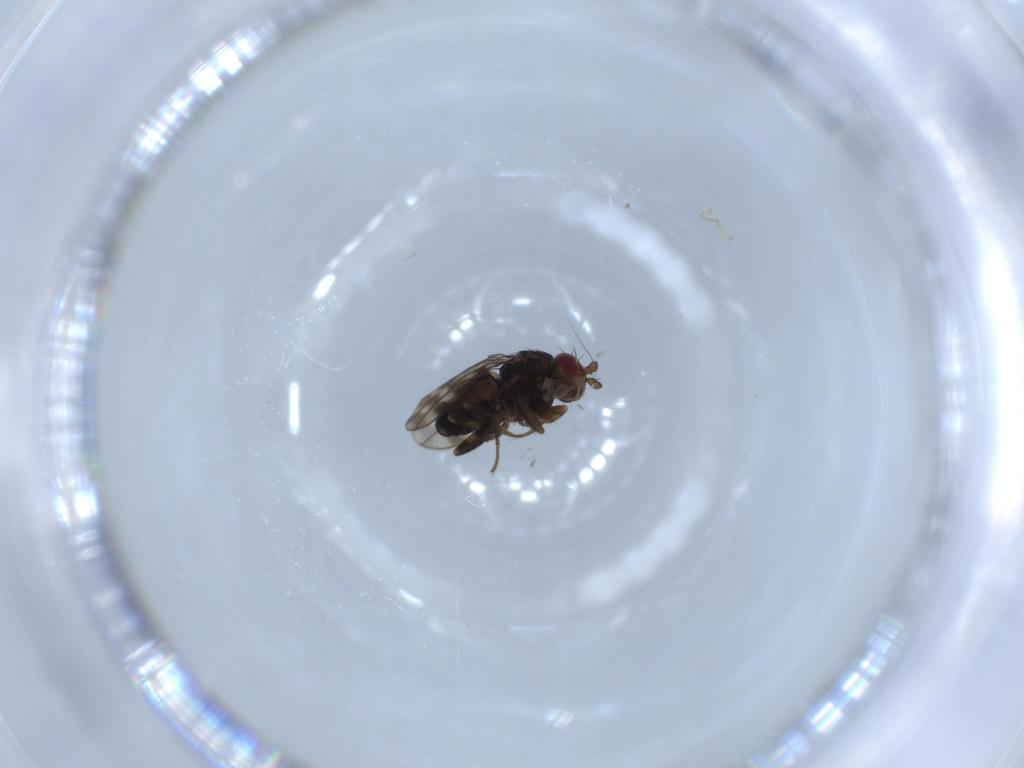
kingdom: Animalia
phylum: Arthropoda
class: Insecta
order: Diptera
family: Sphaeroceridae
